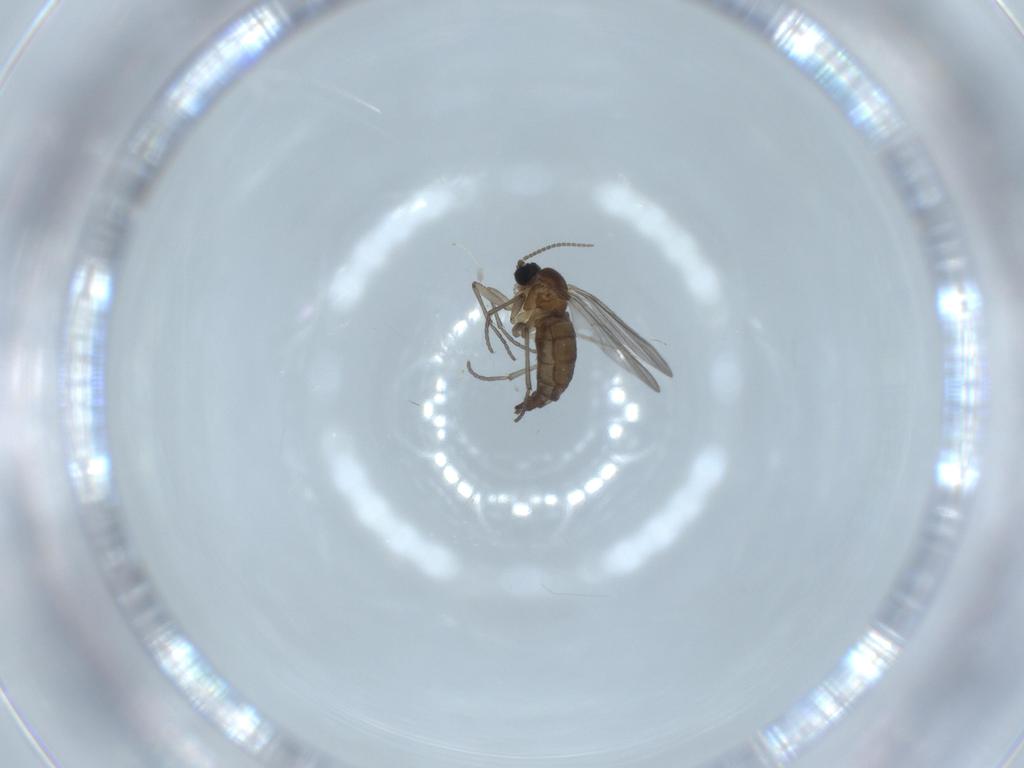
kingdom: Animalia
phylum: Arthropoda
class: Insecta
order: Diptera
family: Sciaridae
